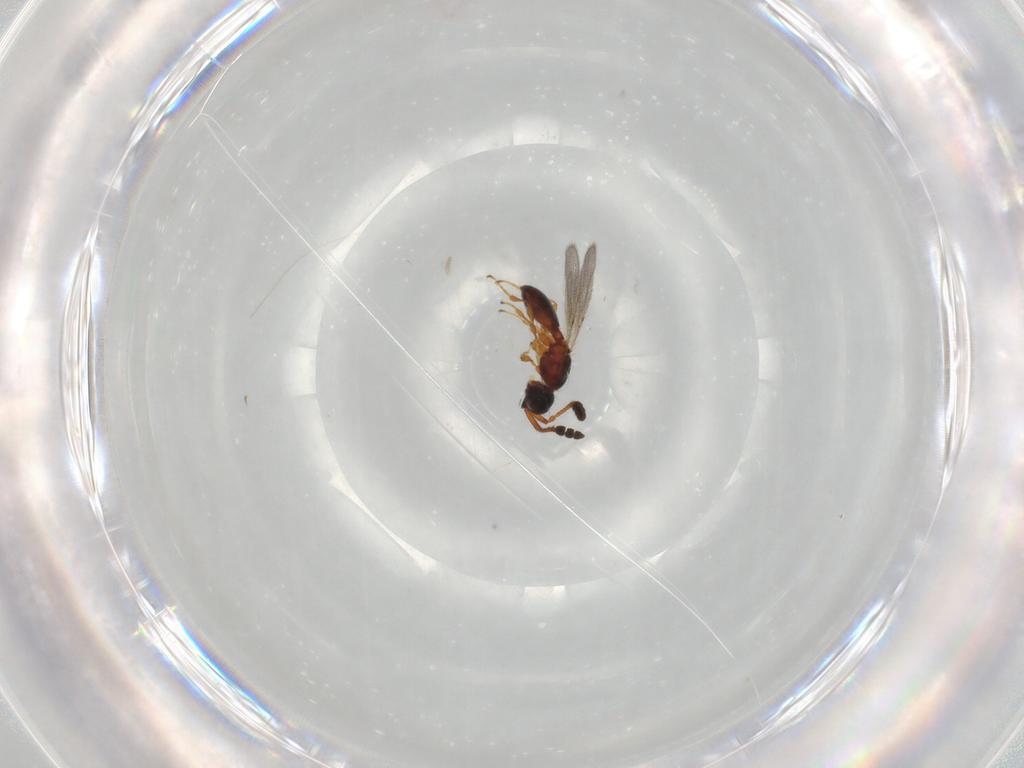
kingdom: Animalia
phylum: Arthropoda
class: Insecta
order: Hymenoptera
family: Diapriidae
